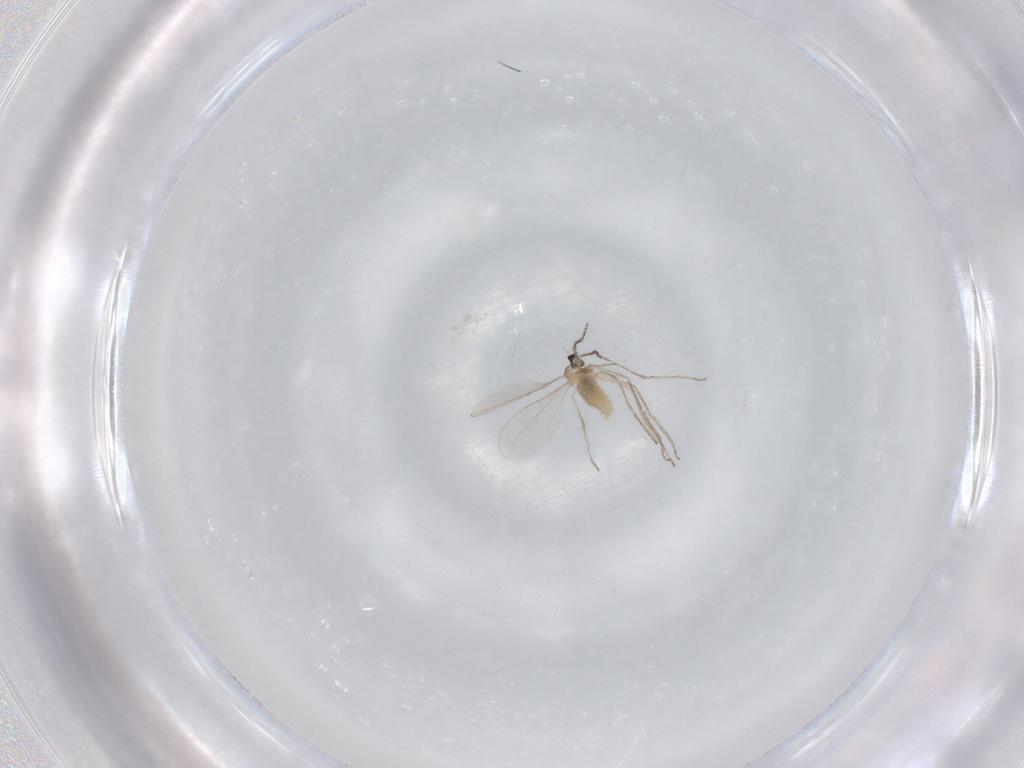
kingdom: Animalia
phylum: Arthropoda
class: Insecta
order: Diptera
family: Cecidomyiidae
